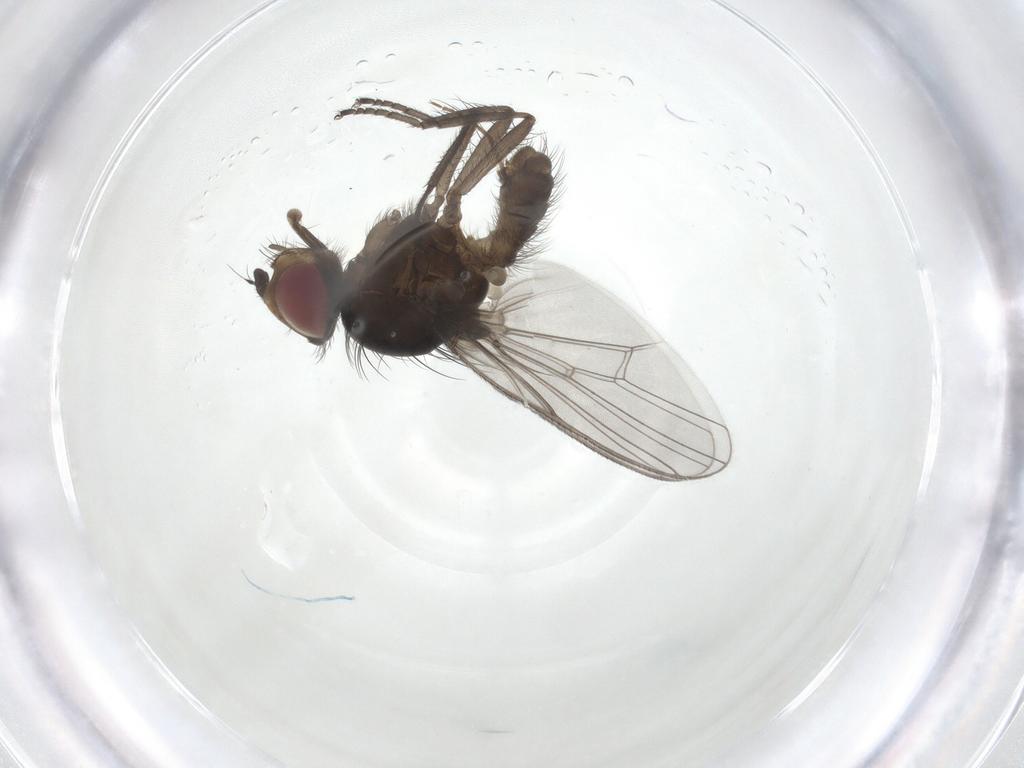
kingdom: Animalia
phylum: Arthropoda
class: Insecta
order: Diptera
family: Anthomyiidae
